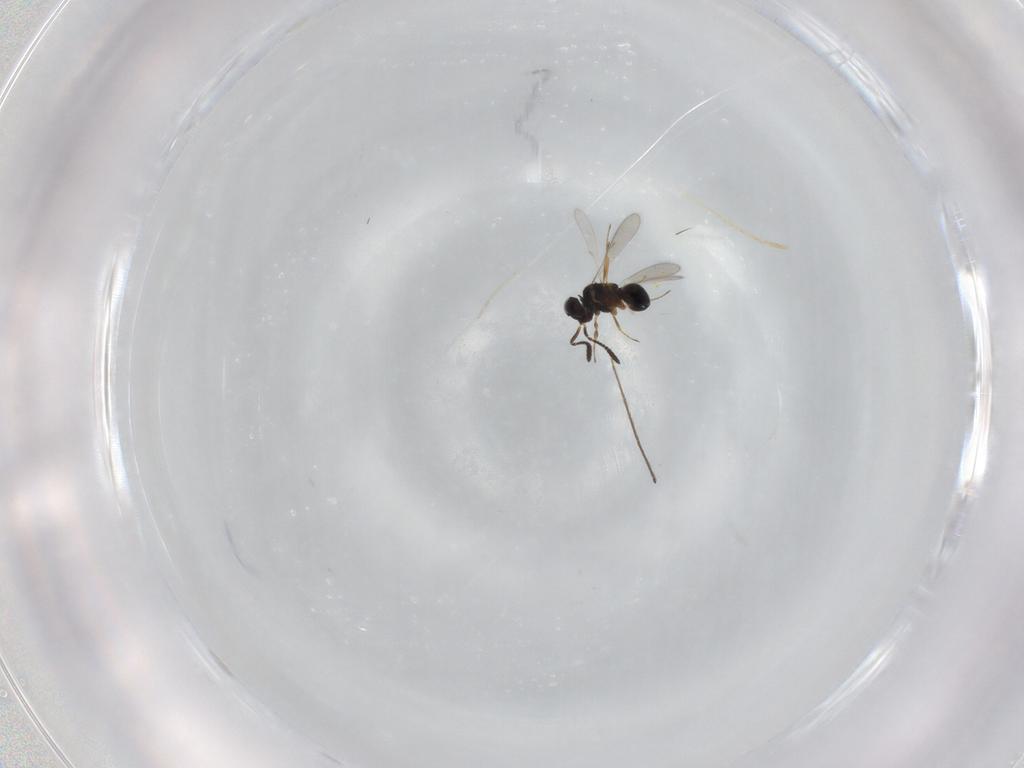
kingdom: Animalia
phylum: Arthropoda
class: Insecta
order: Hymenoptera
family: Scelionidae
